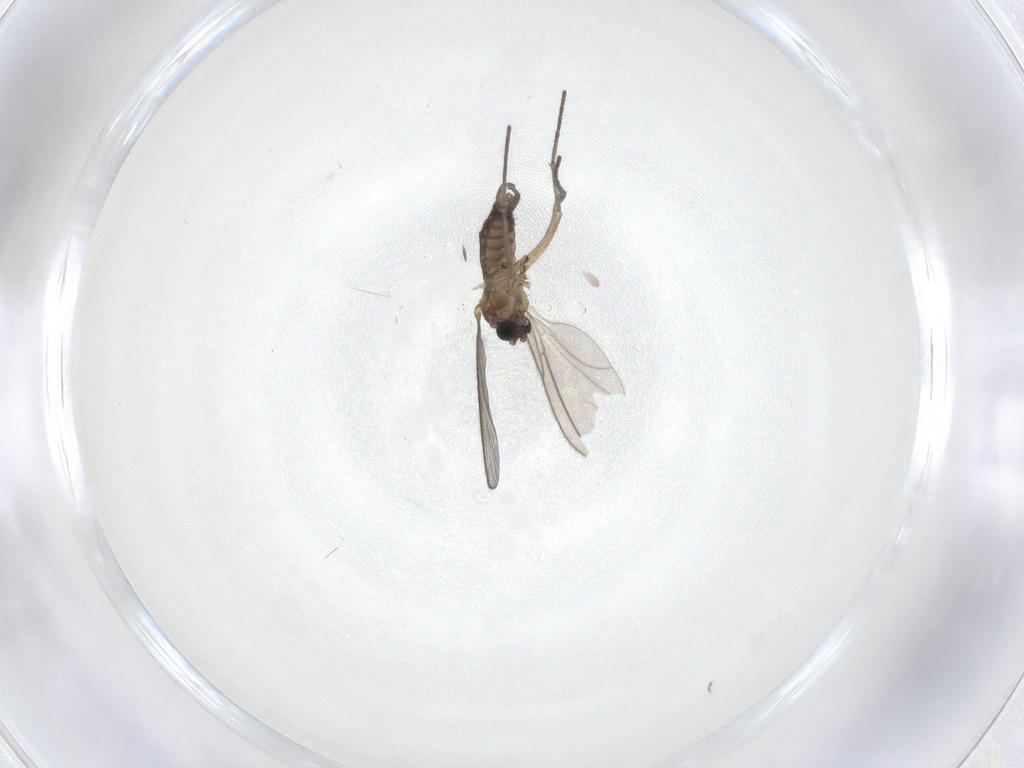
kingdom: Animalia
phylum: Arthropoda
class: Insecta
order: Diptera
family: Sciaridae
